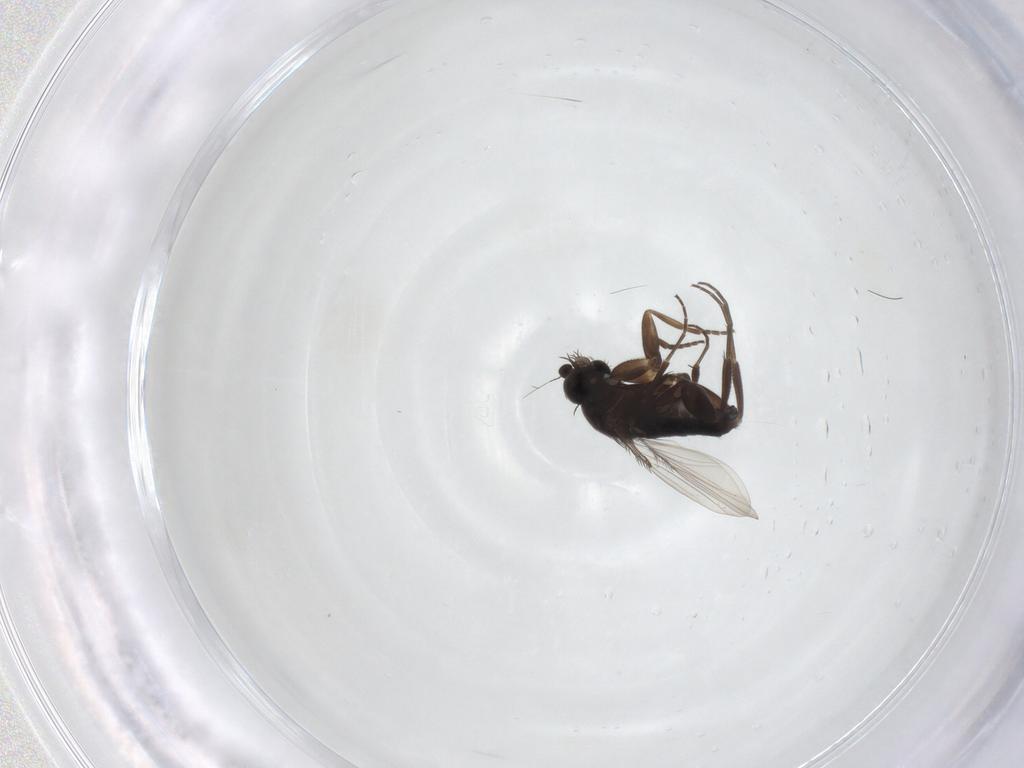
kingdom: Animalia
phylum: Arthropoda
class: Insecta
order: Diptera
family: Phoridae
